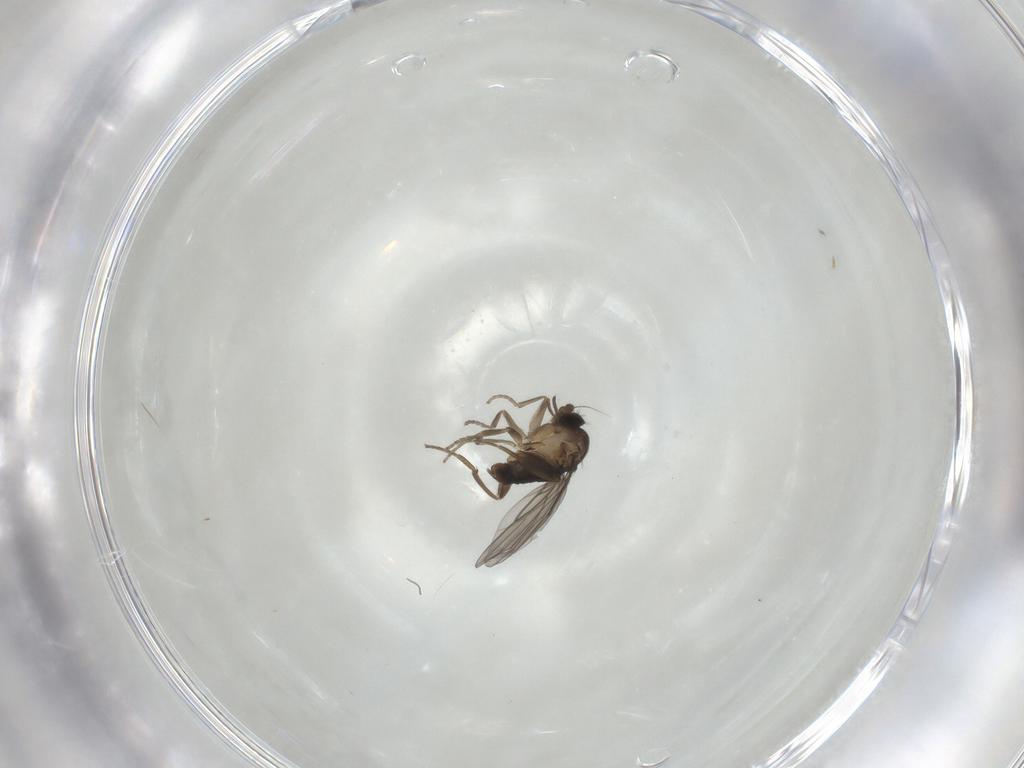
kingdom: Animalia
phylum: Arthropoda
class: Insecta
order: Diptera
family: Phoridae
